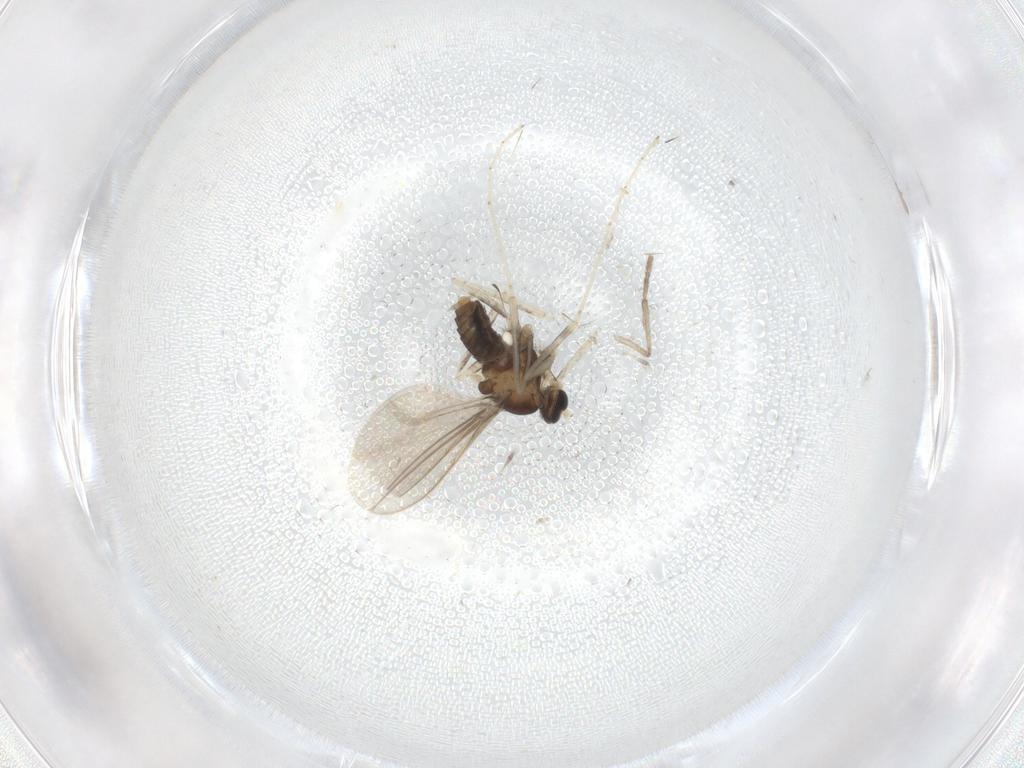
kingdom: Animalia
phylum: Arthropoda
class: Insecta
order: Diptera
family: Cecidomyiidae
